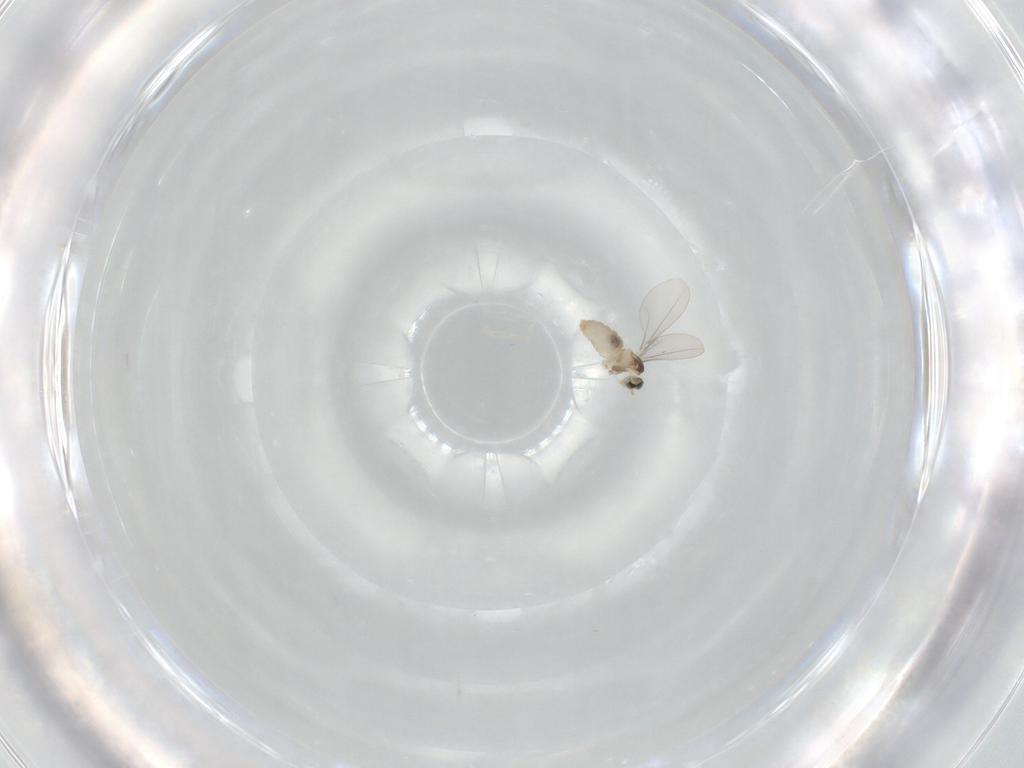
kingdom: Animalia
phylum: Arthropoda
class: Insecta
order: Diptera
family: Cecidomyiidae
